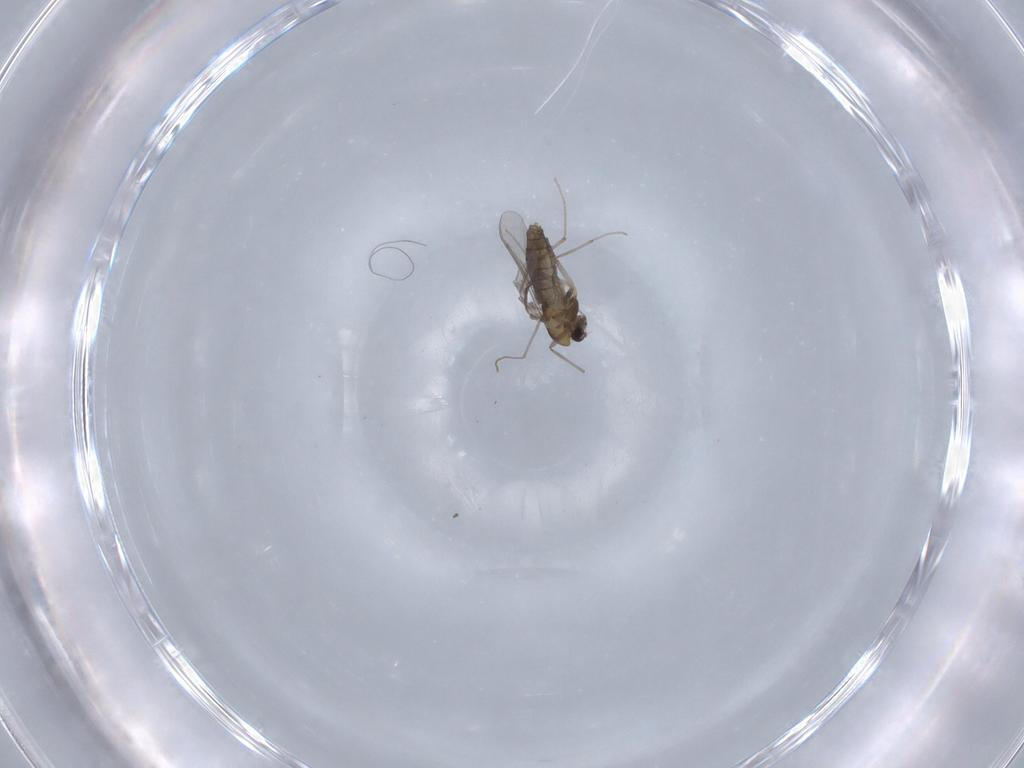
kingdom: Animalia
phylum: Arthropoda
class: Insecta
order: Diptera
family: Chironomidae
